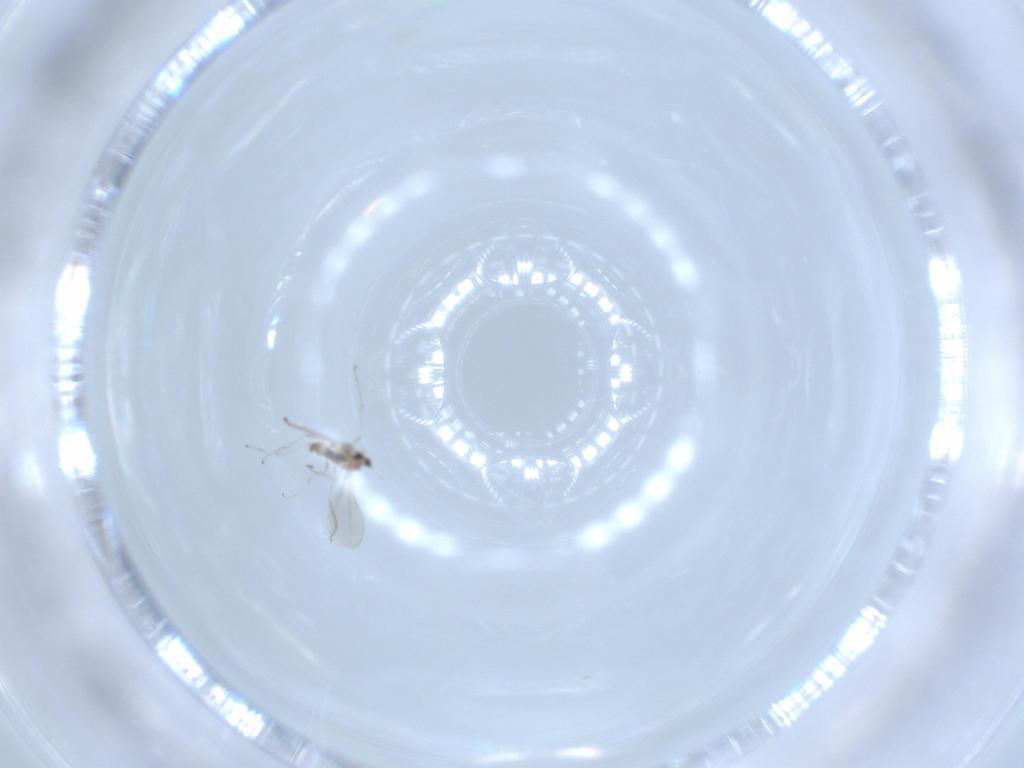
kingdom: Animalia
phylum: Arthropoda
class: Insecta
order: Diptera
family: Cecidomyiidae
